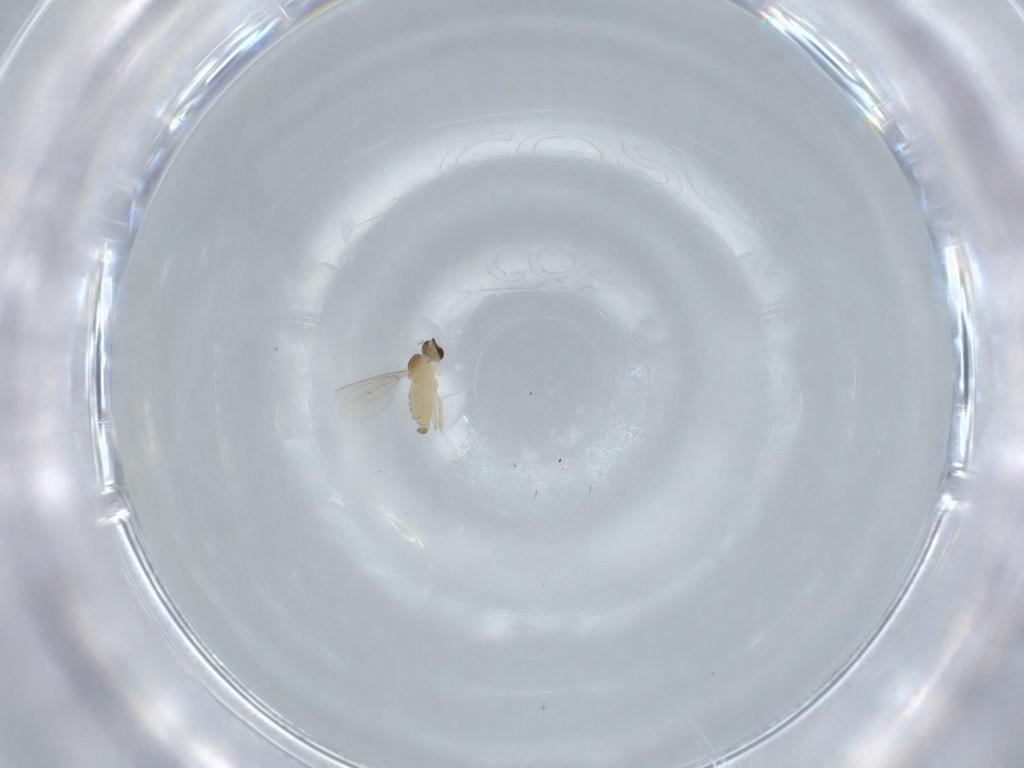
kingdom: Animalia
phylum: Arthropoda
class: Insecta
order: Diptera
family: Cecidomyiidae
